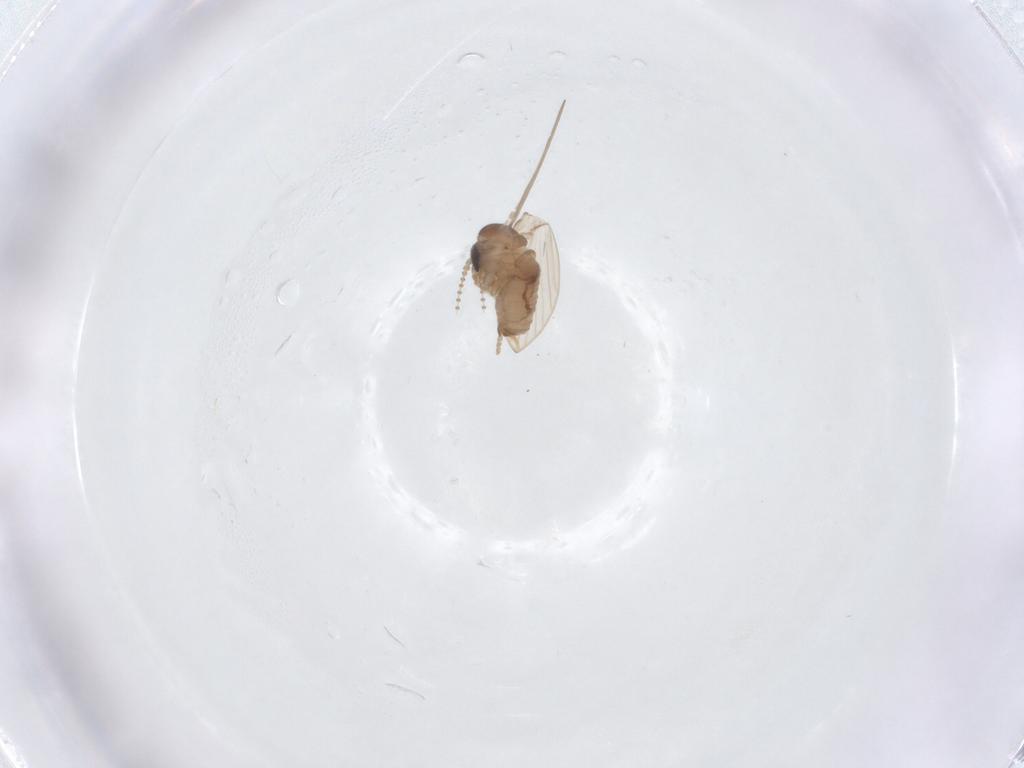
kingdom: Animalia
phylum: Arthropoda
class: Insecta
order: Diptera
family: Psychodidae
